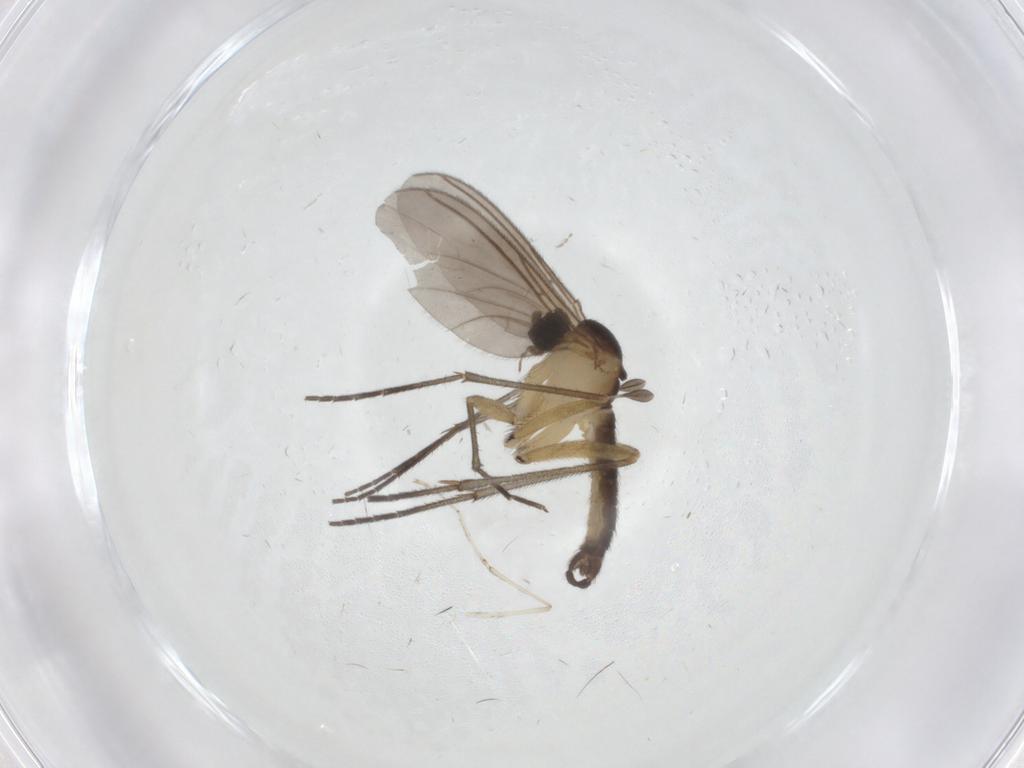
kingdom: Animalia
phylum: Arthropoda
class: Insecta
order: Diptera
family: Sciaridae
